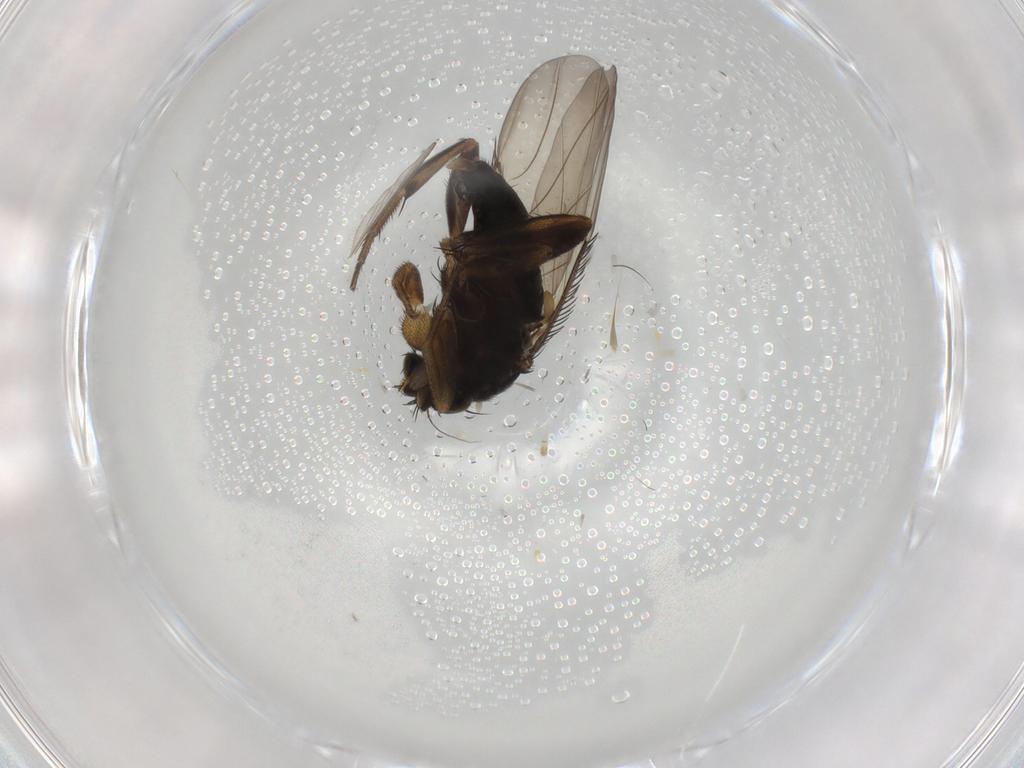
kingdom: Animalia
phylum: Arthropoda
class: Insecta
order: Diptera
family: Phoridae
